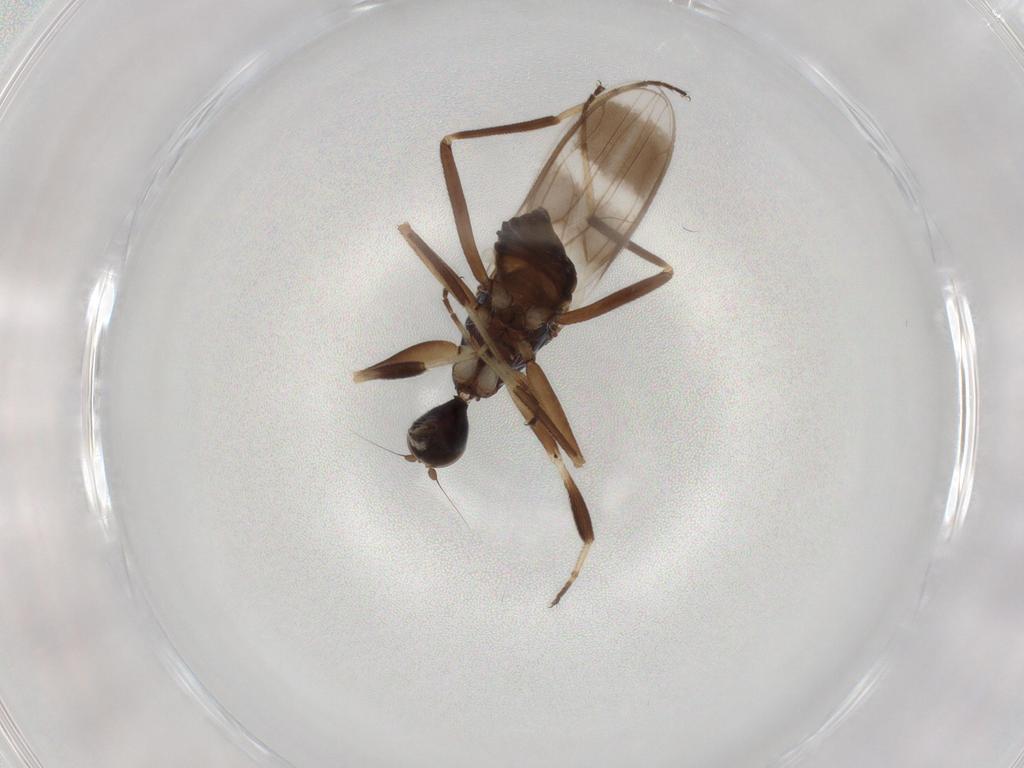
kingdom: Animalia
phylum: Arthropoda
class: Insecta
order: Diptera
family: Hybotidae
